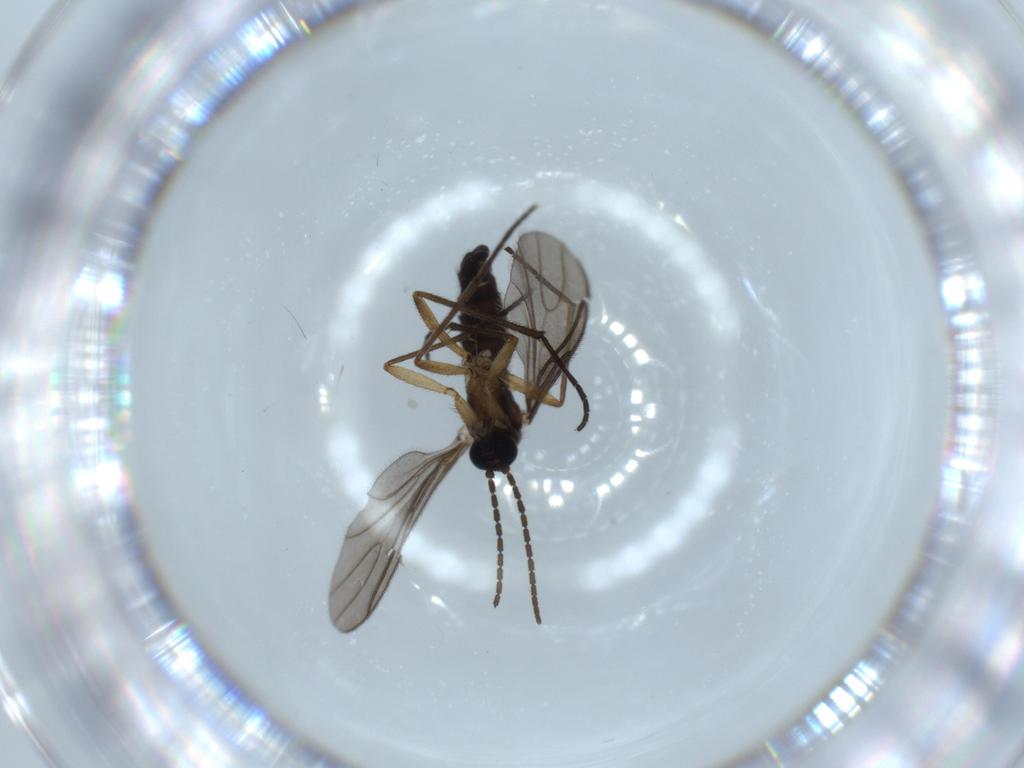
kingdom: Animalia
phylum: Arthropoda
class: Insecta
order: Diptera
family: Sciaridae
